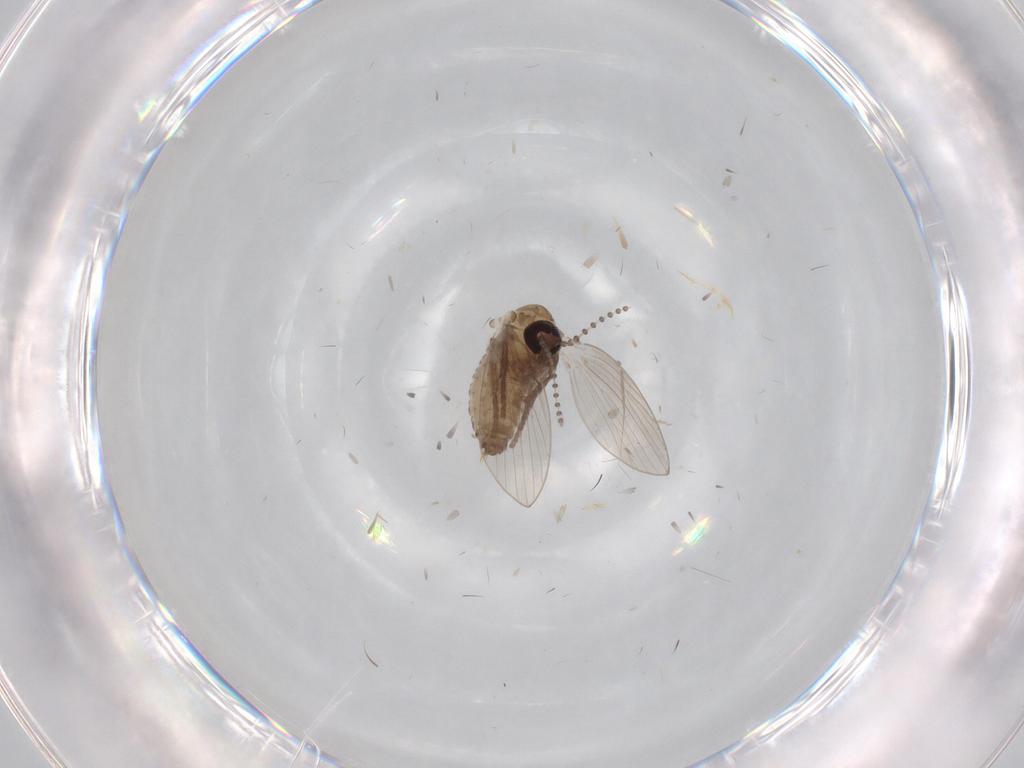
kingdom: Animalia
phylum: Arthropoda
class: Insecta
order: Diptera
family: Psychodidae
